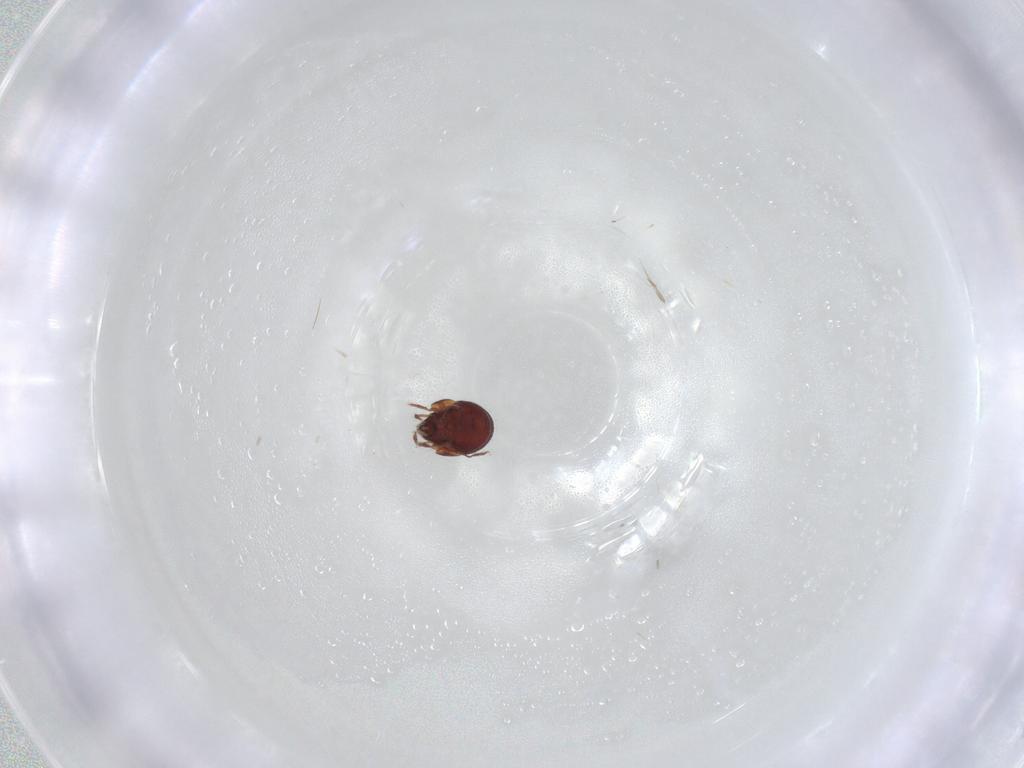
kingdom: Animalia
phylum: Arthropoda
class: Arachnida
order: Sarcoptiformes
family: Humerobatidae
